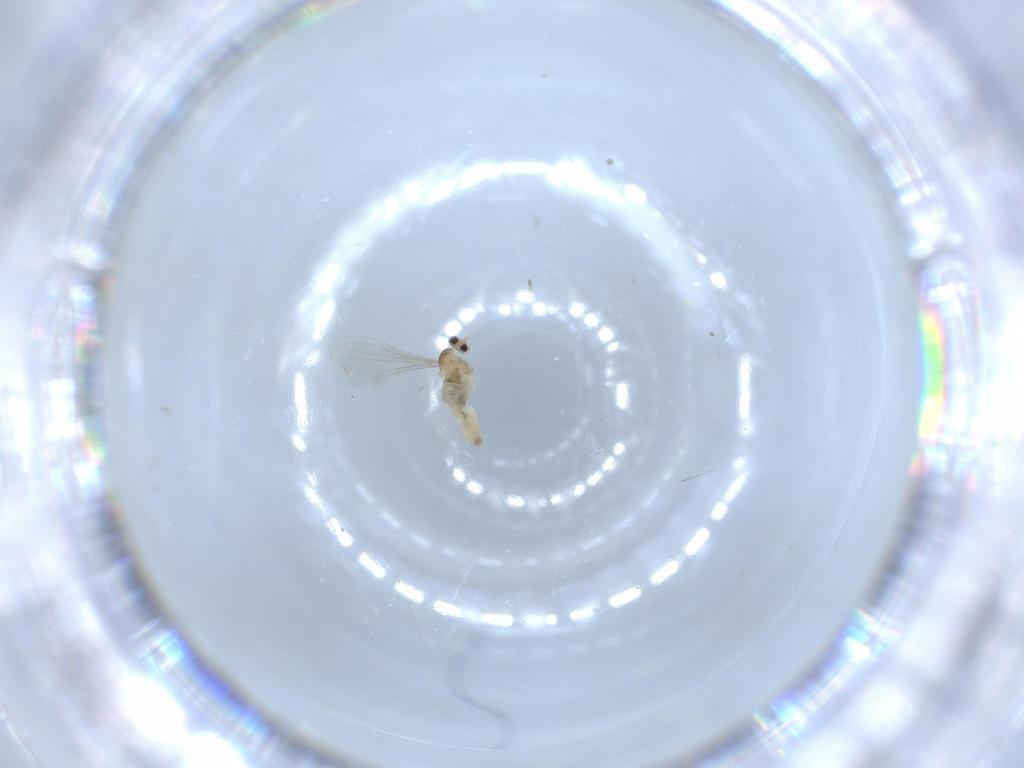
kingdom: Animalia
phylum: Arthropoda
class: Insecta
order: Diptera
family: Cecidomyiidae
